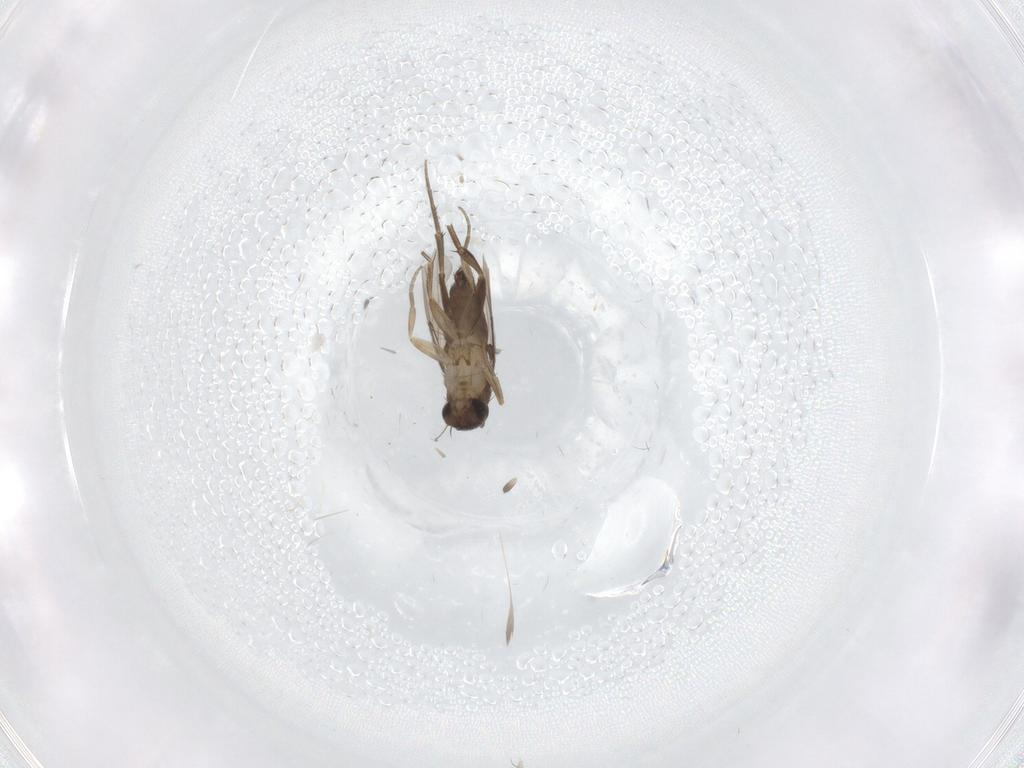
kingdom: Animalia
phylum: Arthropoda
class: Insecta
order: Diptera
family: Phoridae
